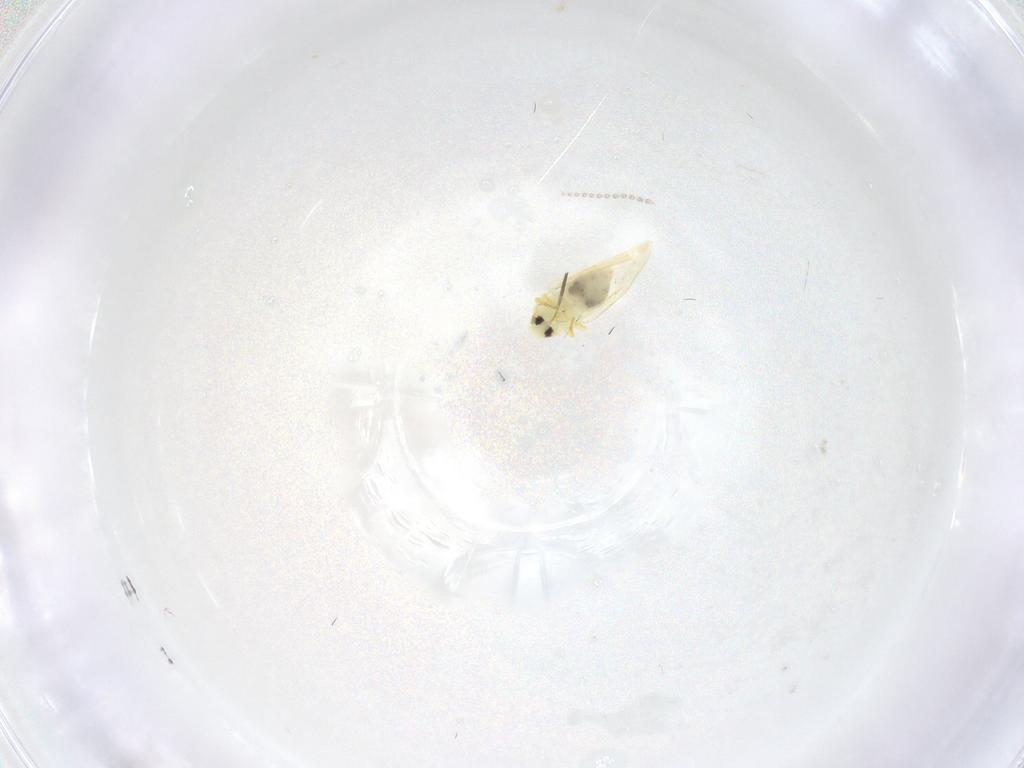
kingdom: Animalia
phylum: Arthropoda
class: Insecta
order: Hemiptera
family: Aleyrodidae
